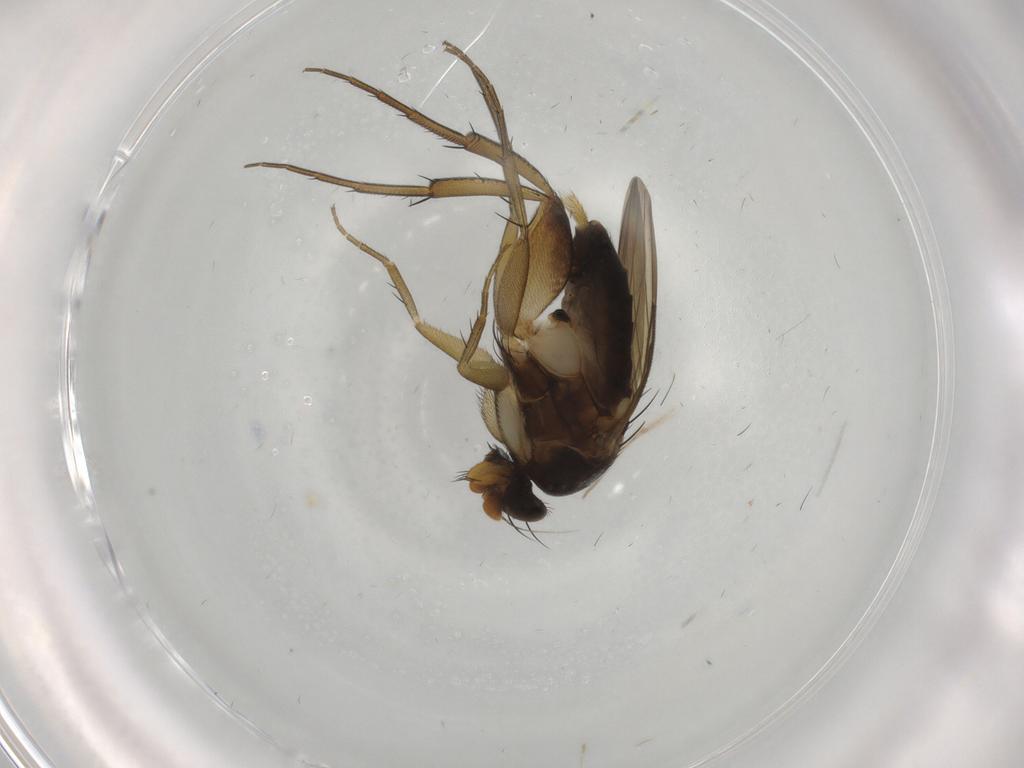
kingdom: Animalia
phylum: Arthropoda
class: Insecta
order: Diptera
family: Phoridae
